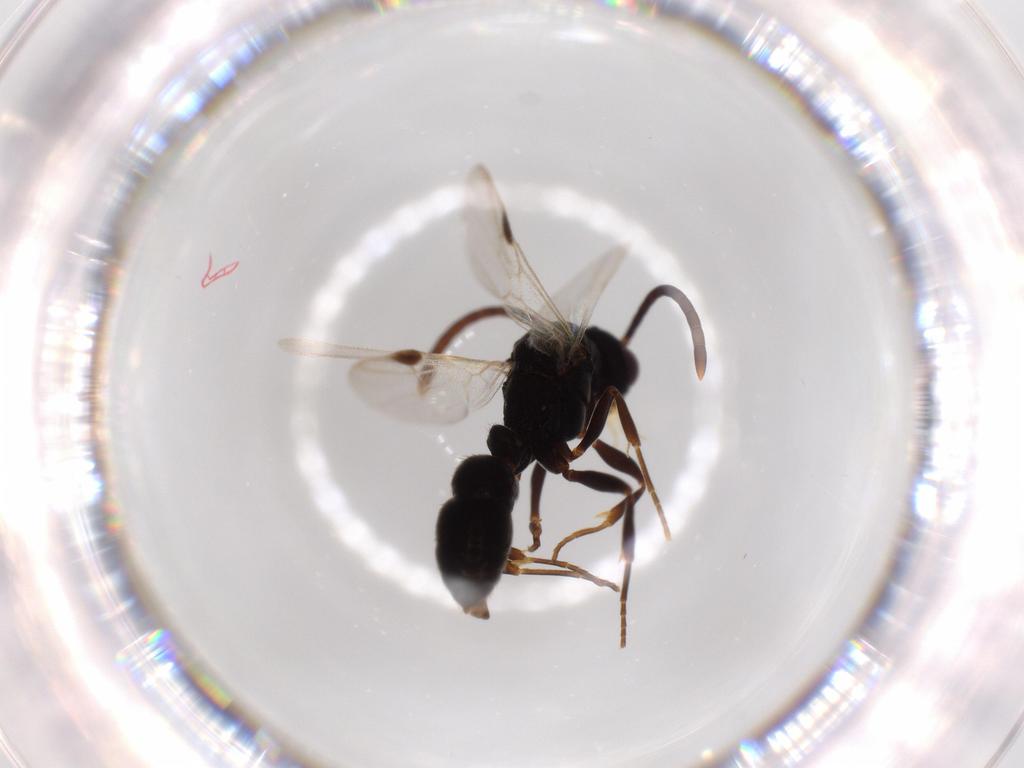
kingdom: Animalia
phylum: Arthropoda
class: Insecta
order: Hymenoptera
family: Formicidae
